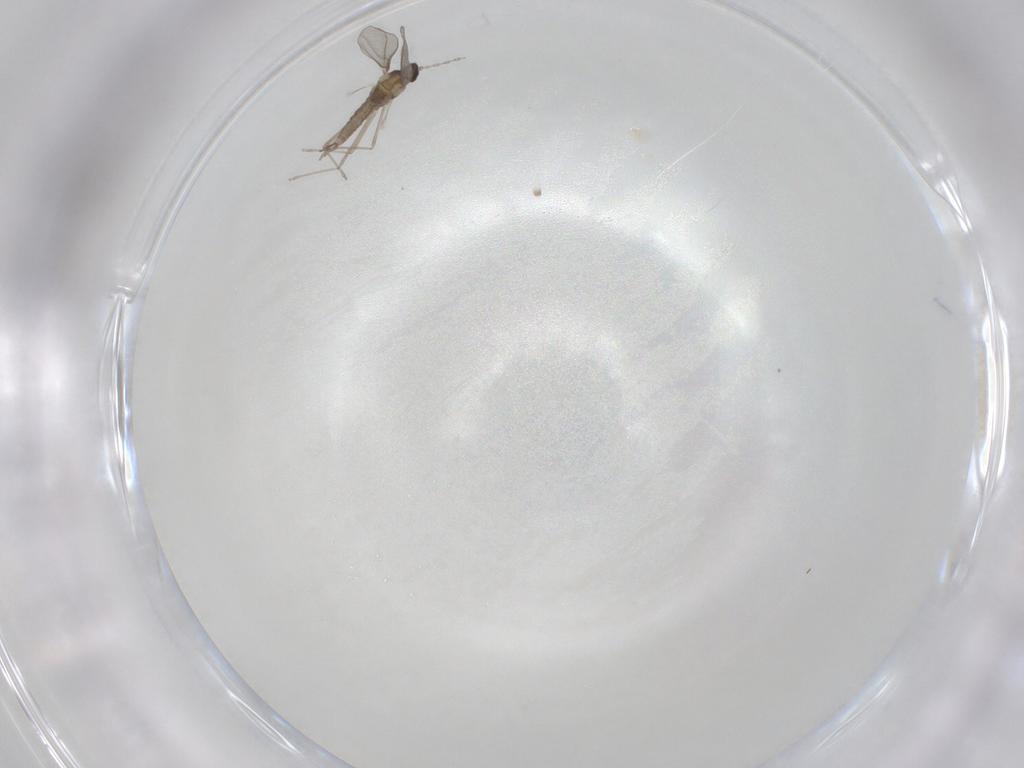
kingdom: Animalia
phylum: Arthropoda
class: Insecta
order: Diptera
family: Cecidomyiidae
